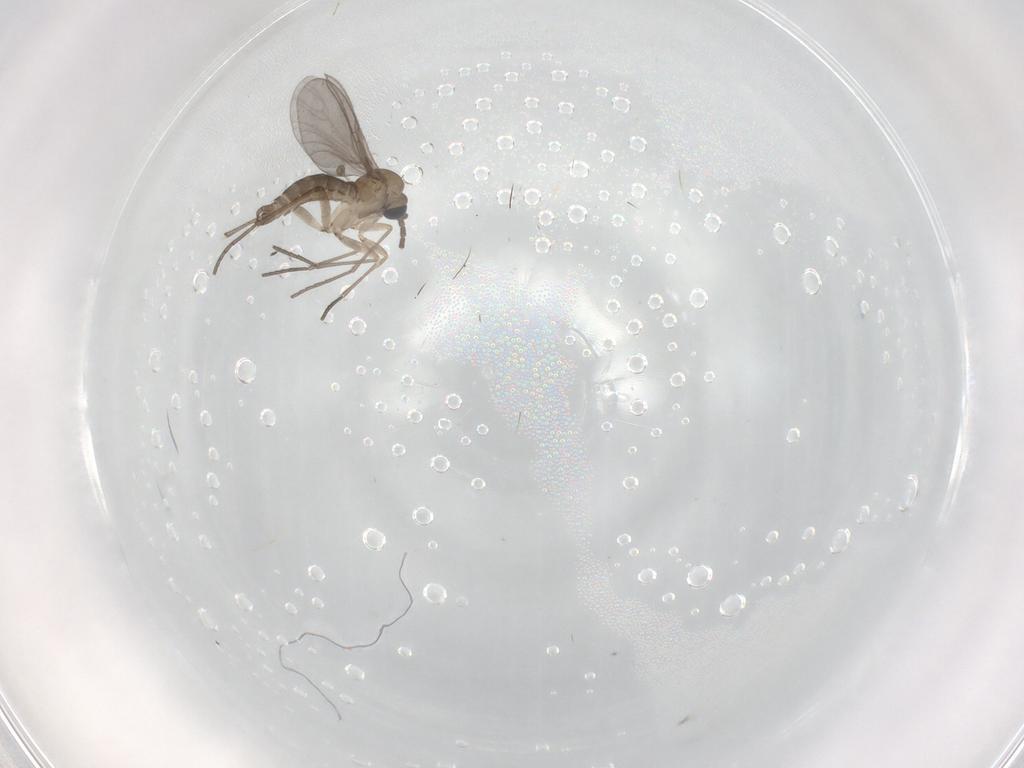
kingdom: Animalia
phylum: Arthropoda
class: Insecta
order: Diptera
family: Sciaridae
